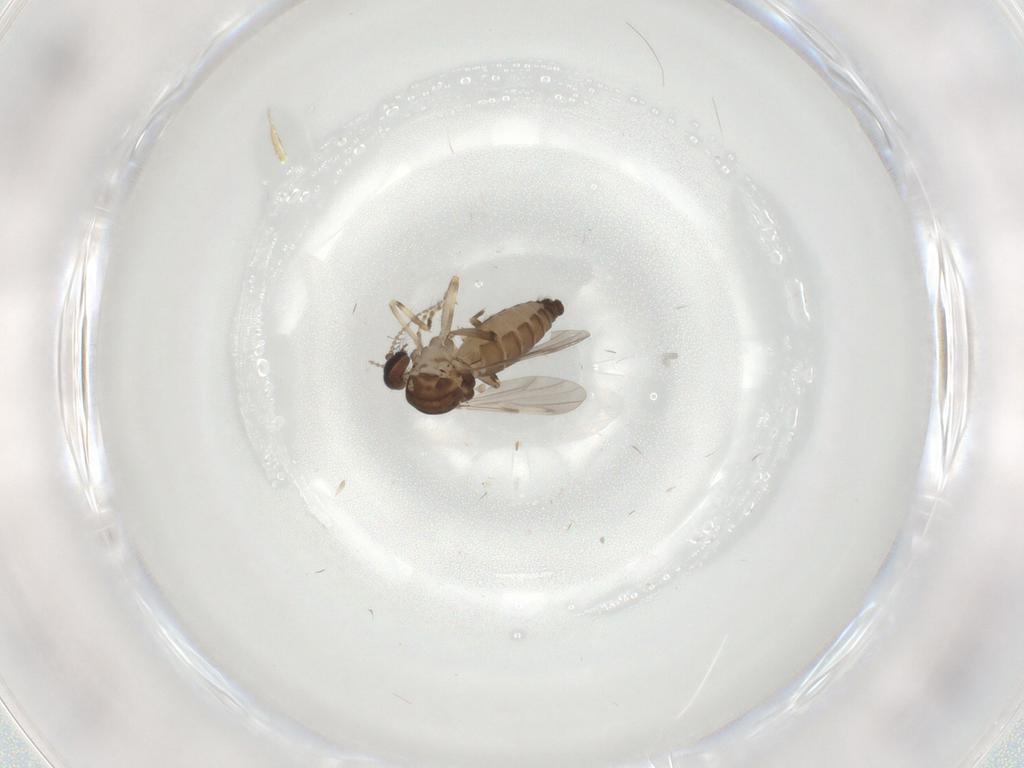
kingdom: Animalia
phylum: Arthropoda
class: Insecta
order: Diptera
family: Ceratopogonidae
